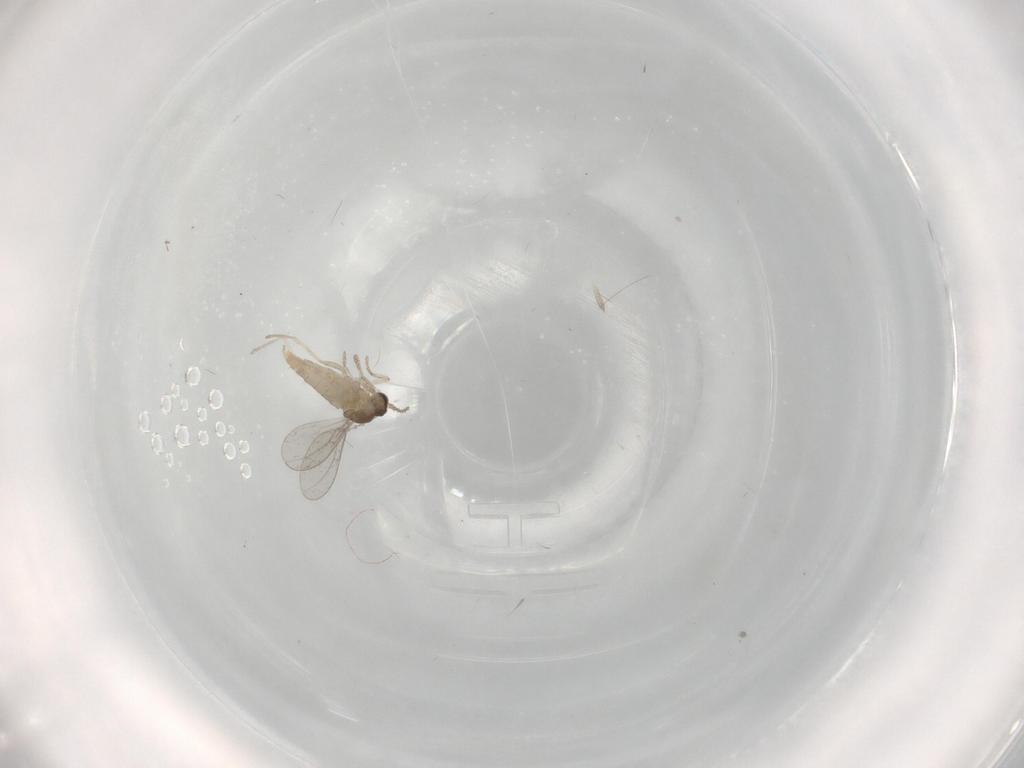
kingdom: Animalia
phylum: Arthropoda
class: Insecta
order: Diptera
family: Cecidomyiidae
